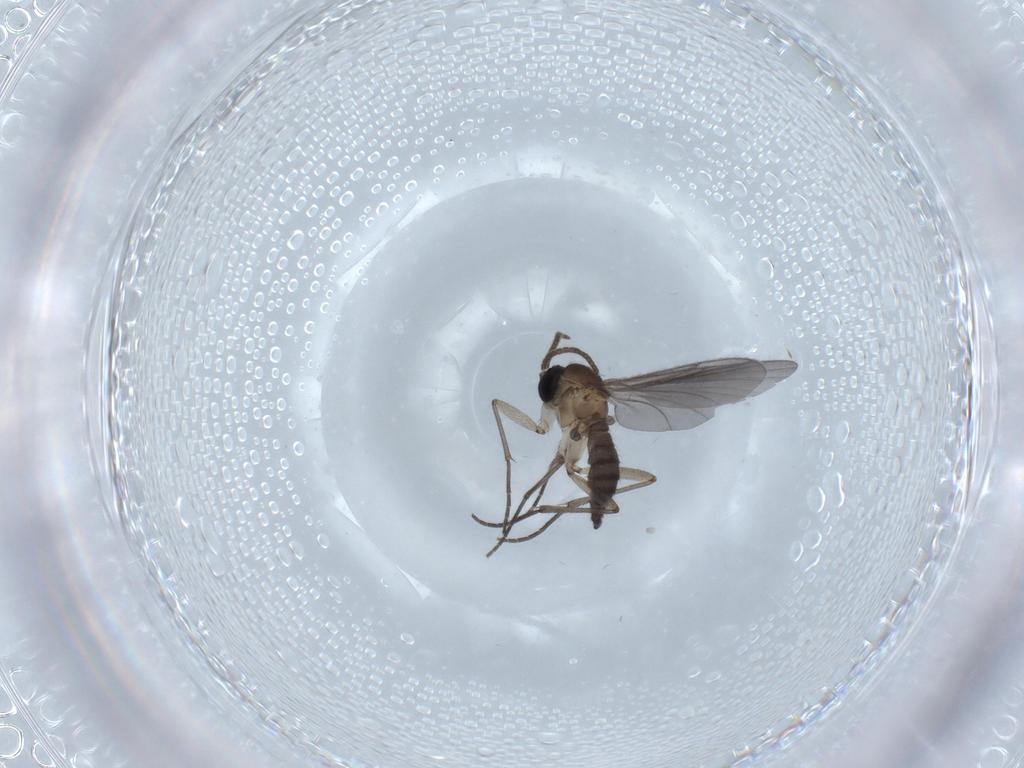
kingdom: Animalia
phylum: Arthropoda
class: Insecta
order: Diptera
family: Cecidomyiidae
